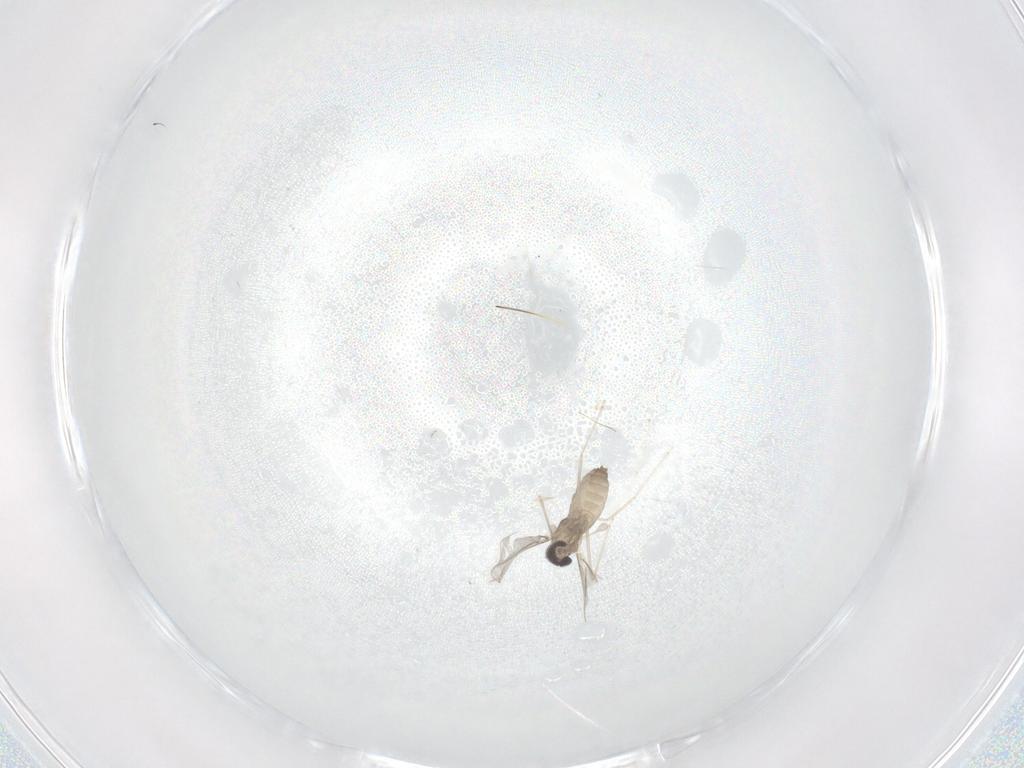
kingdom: Animalia
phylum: Arthropoda
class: Insecta
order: Diptera
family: Cecidomyiidae
